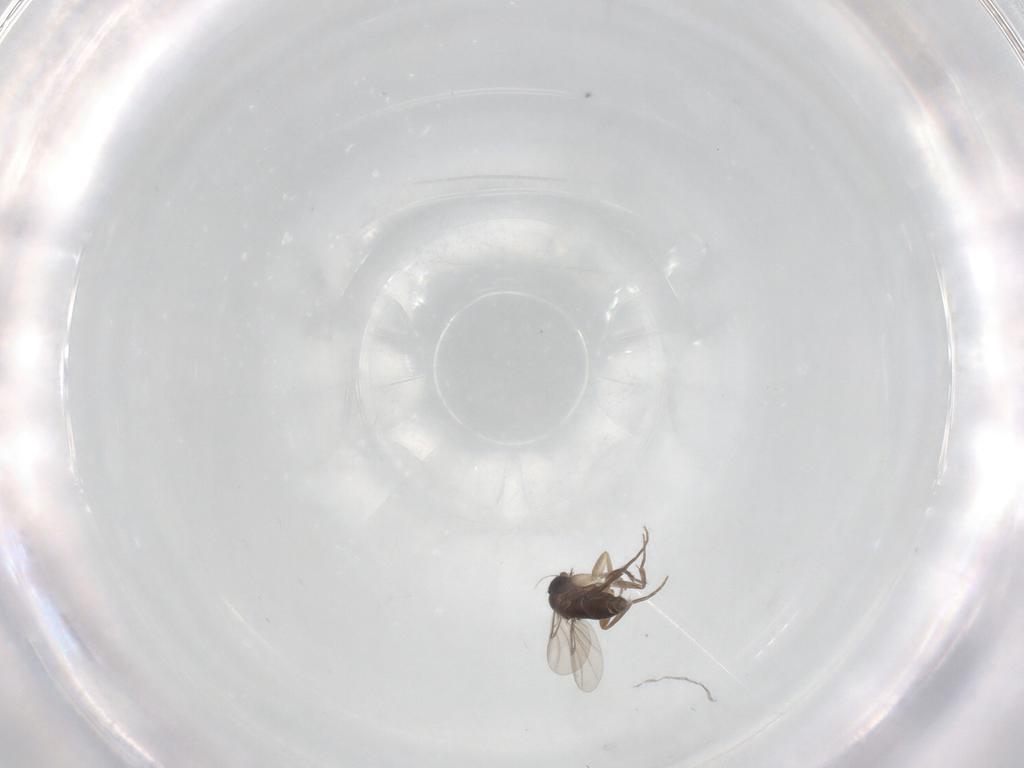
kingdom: Animalia
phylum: Arthropoda
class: Insecta
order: Diptera
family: Phoridae
